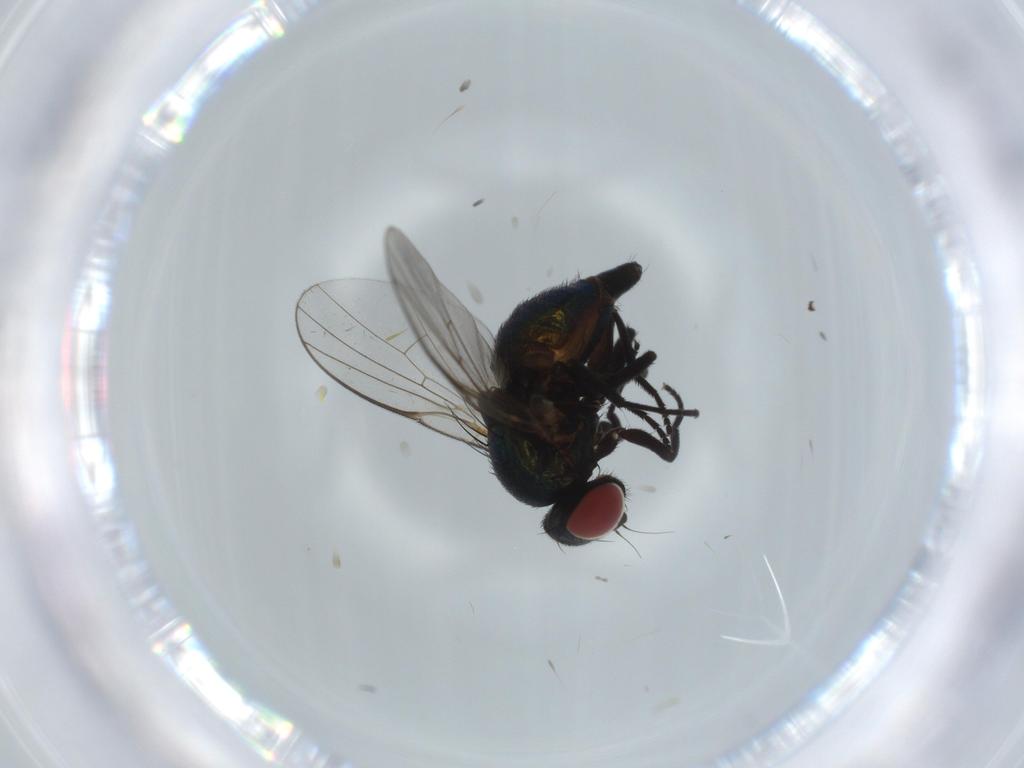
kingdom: Animalia
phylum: Arthropoda
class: Insecta
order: Diptera
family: Agromyzidae
